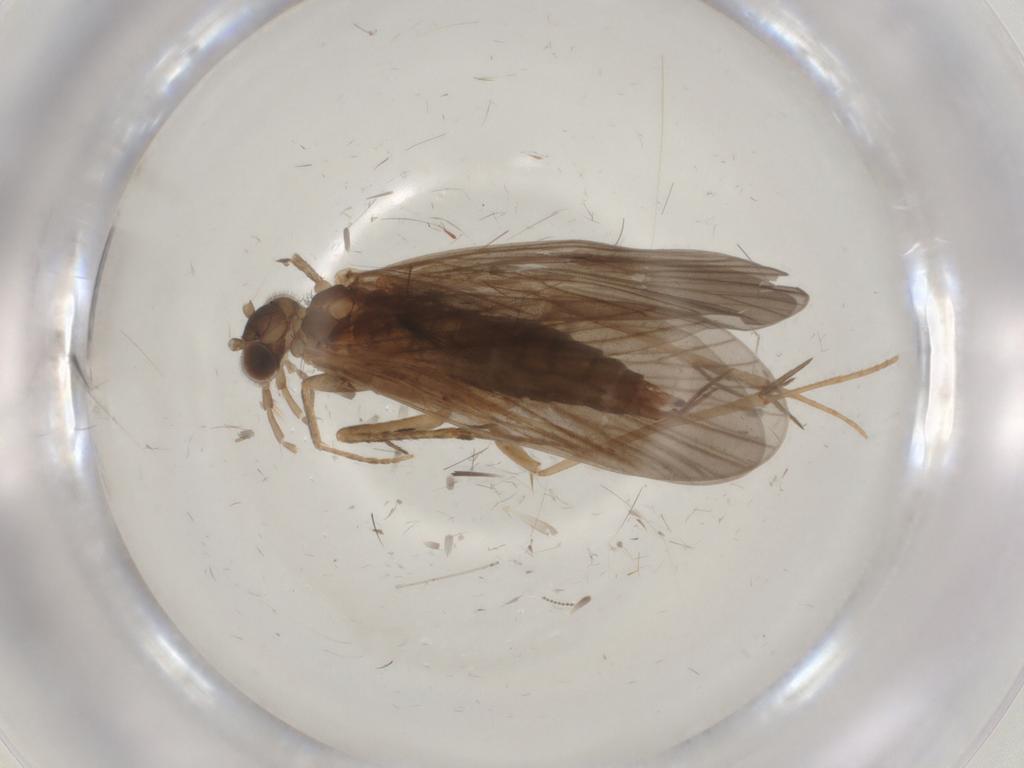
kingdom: Animalia
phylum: Arthropoda
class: Insecta
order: Trichoptera
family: Philopotamidae
